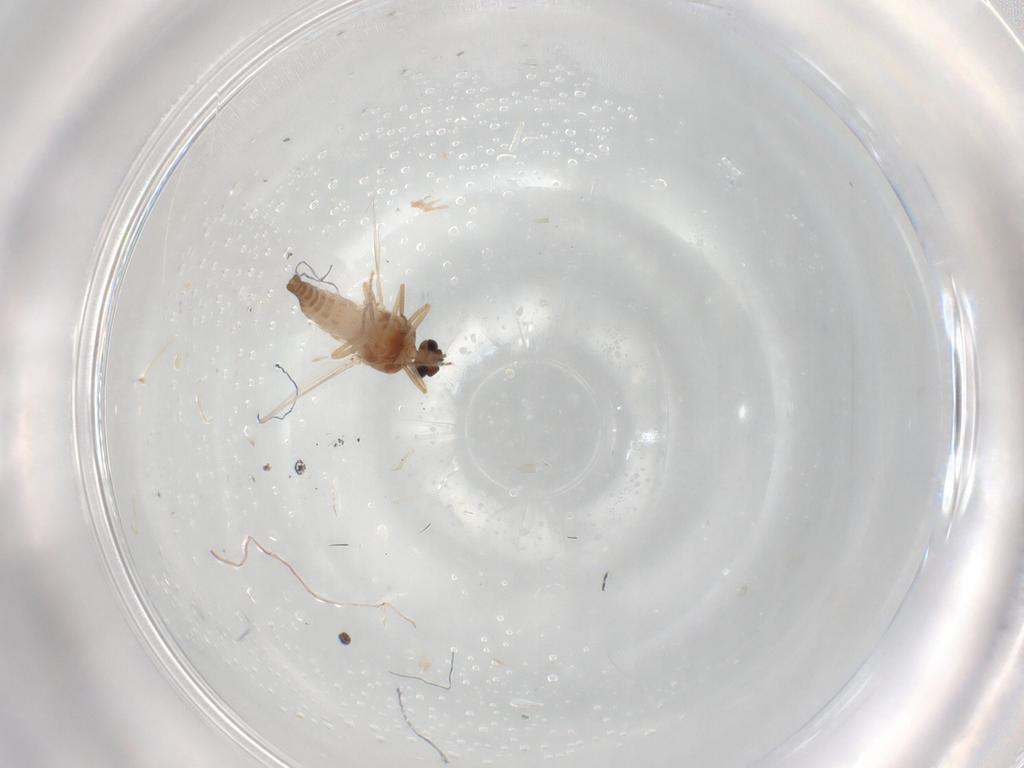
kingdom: Animalia
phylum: Arthropoda
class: Insecta
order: Diptera
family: Ceratopogonidae
